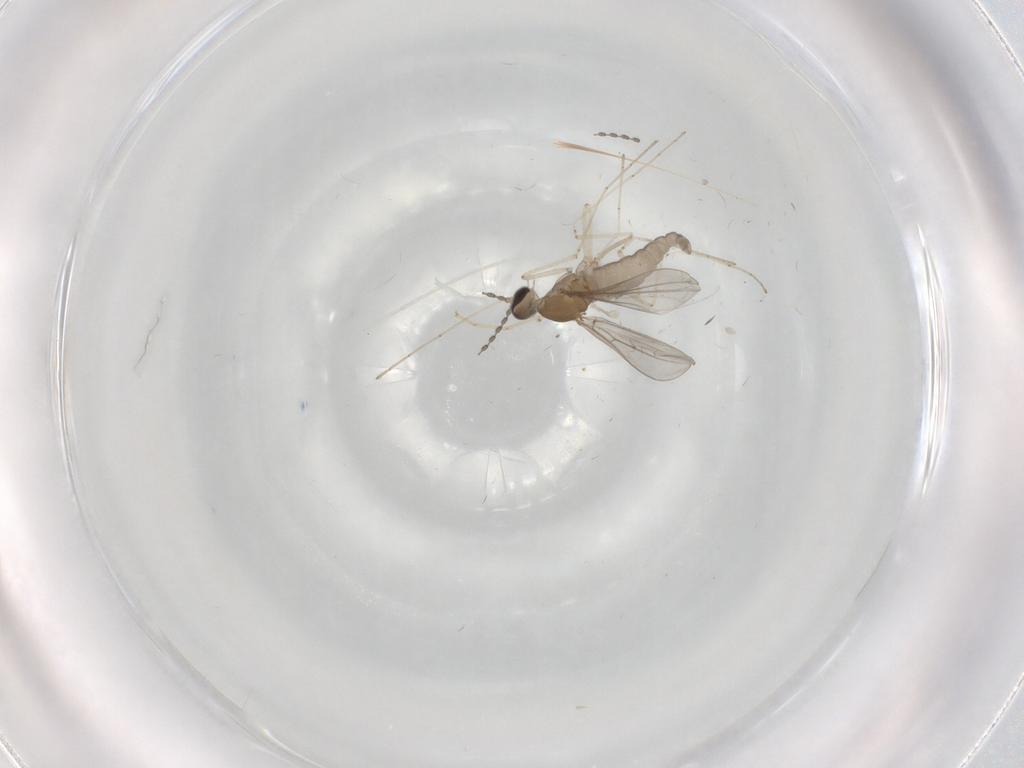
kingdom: Animalia
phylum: Arthropoda
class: Insecta
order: Diptera
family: Cecidomyiidae
